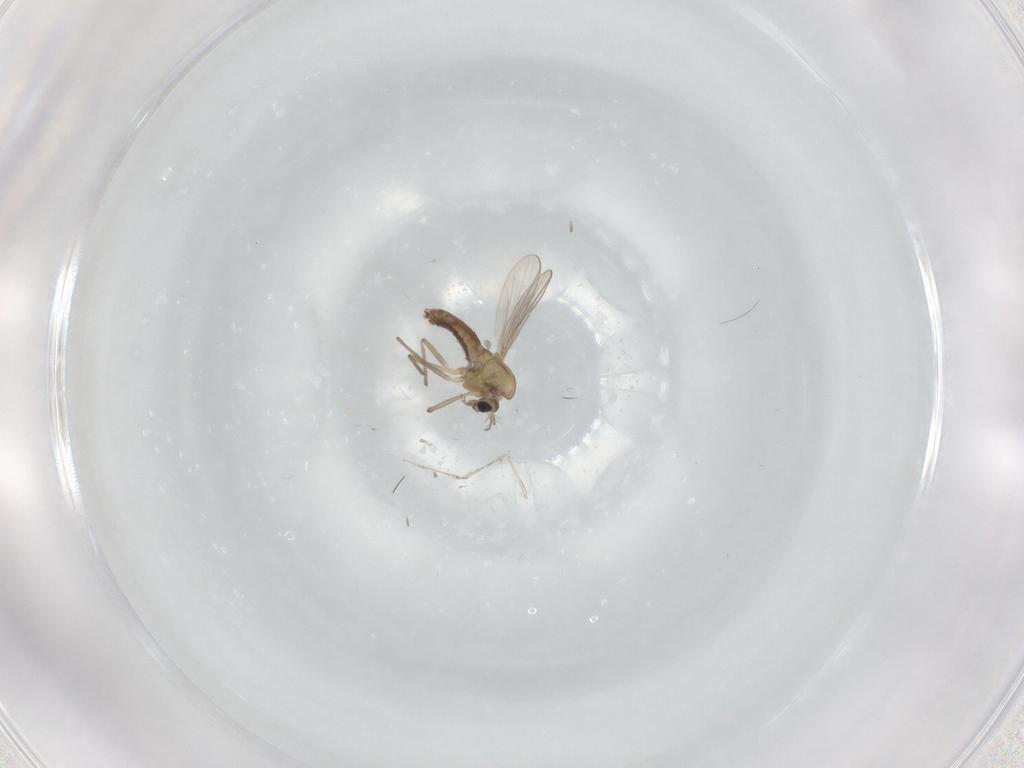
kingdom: Animalia
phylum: Arthropoda
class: Insecta
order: Diptera
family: Chironomidae
